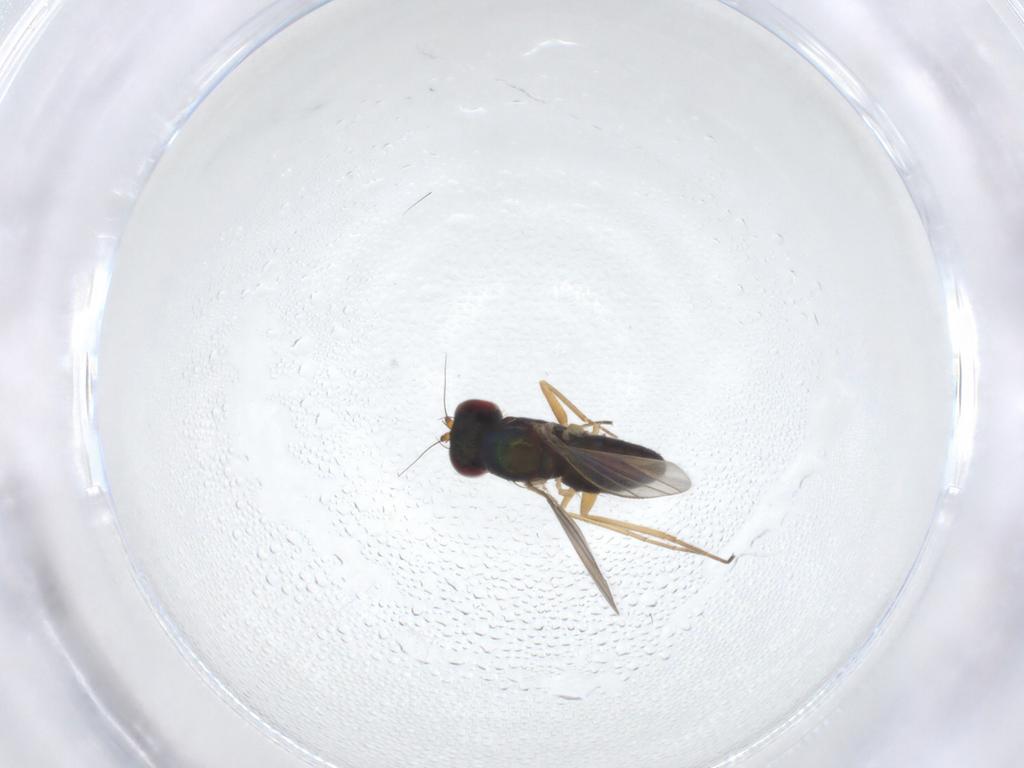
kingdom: Animalia
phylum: Arthropoda
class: Insecta
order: Diptera
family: Dolichopodidae
